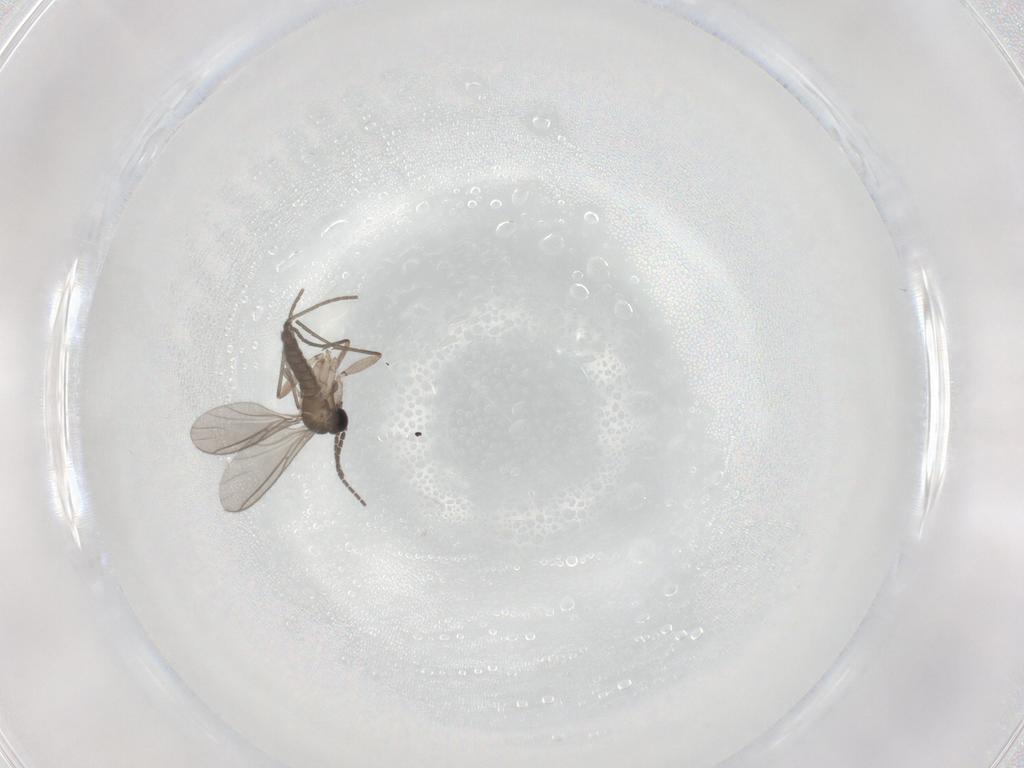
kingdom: Animalia
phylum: Arthropoda
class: Insecta
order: Diptera
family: Sciaridae
